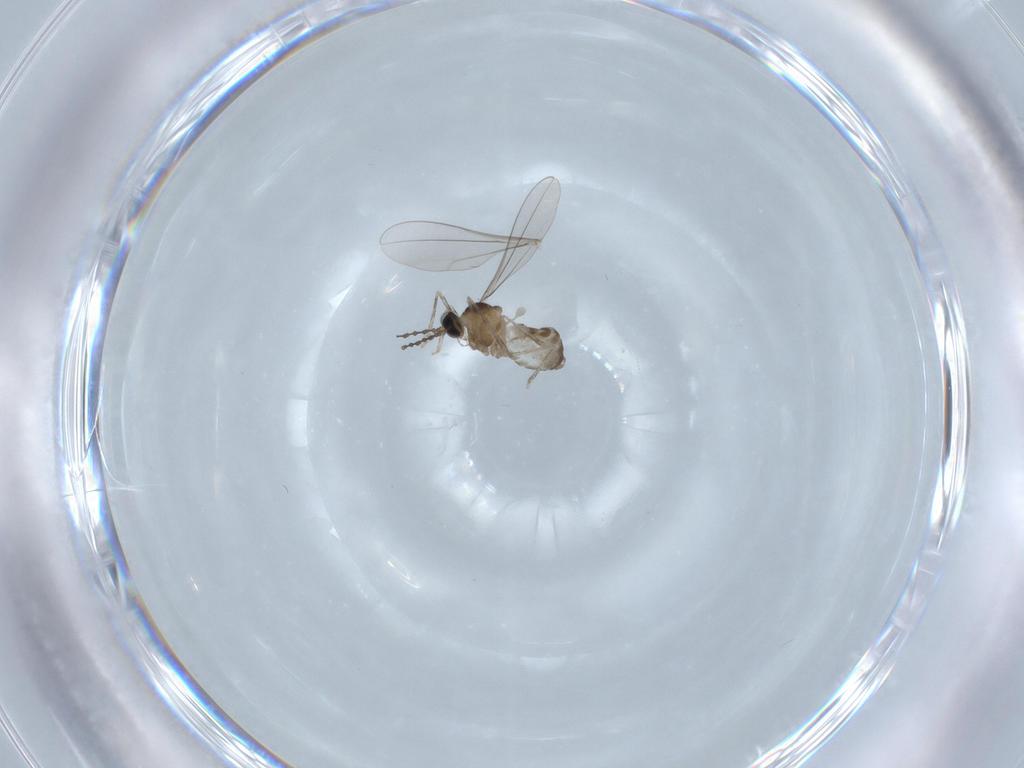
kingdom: Animalia
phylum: Arthropoda
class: Insecta
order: Diptera
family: Cecidomyiidae
